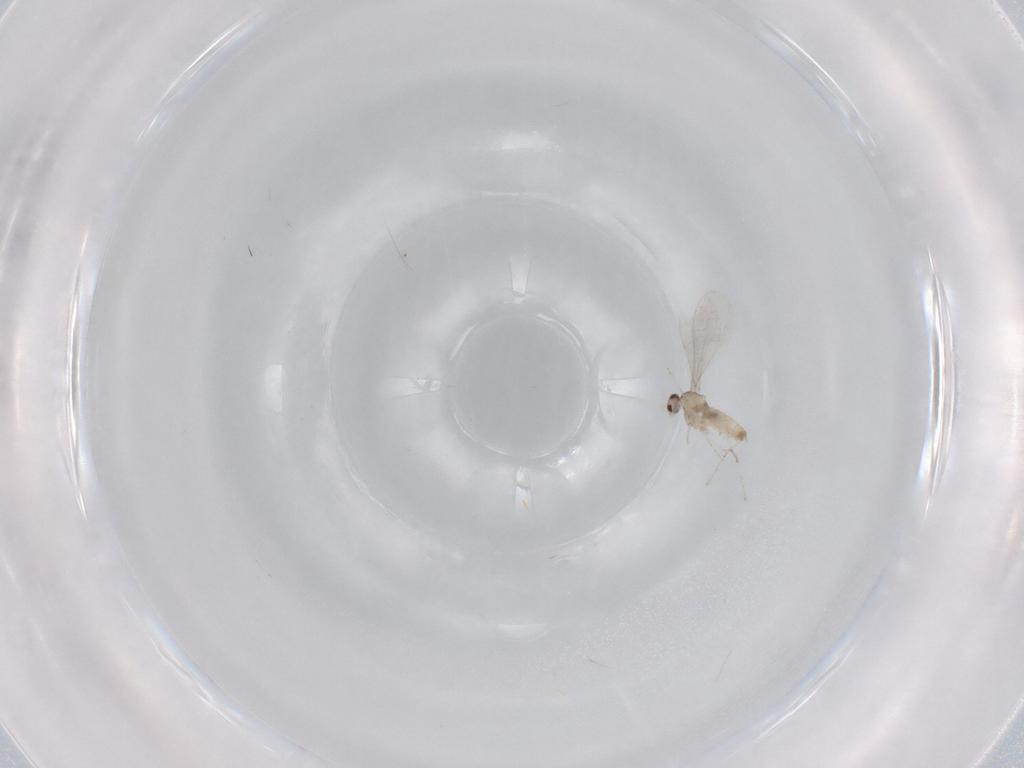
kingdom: Animalia
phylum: Arthropoda
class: Insecta
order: Diptera
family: Cecidomyiidae
